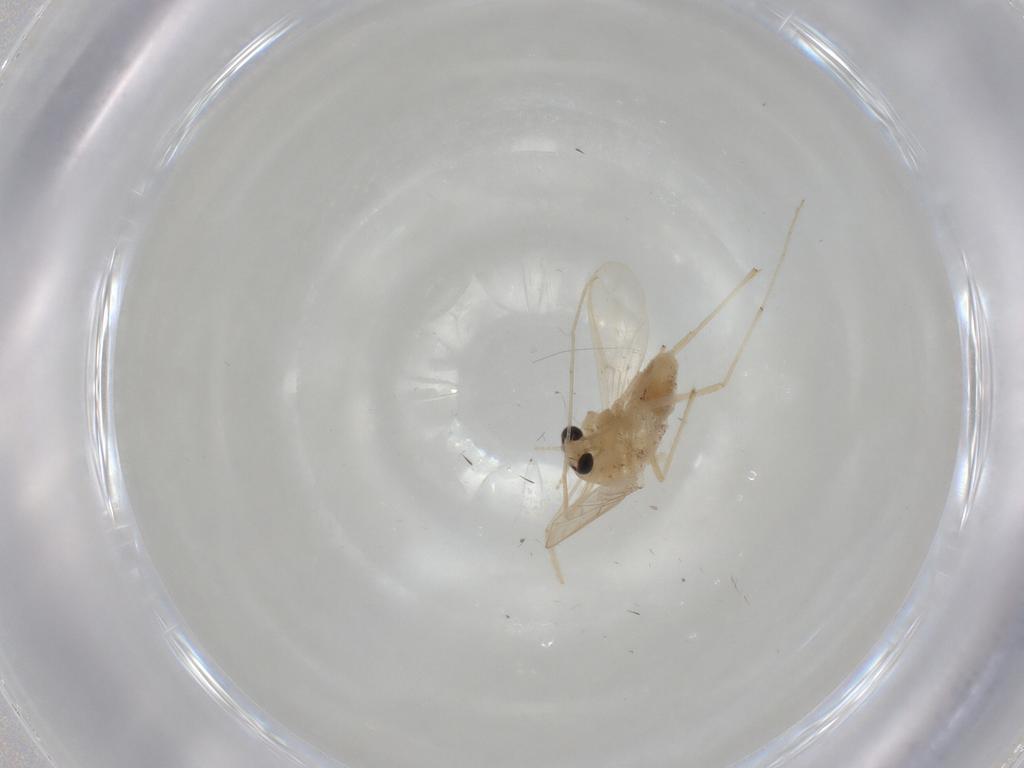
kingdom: Animalia
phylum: Arthropoda
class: Insecta
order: Diptera
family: Chironomidae
